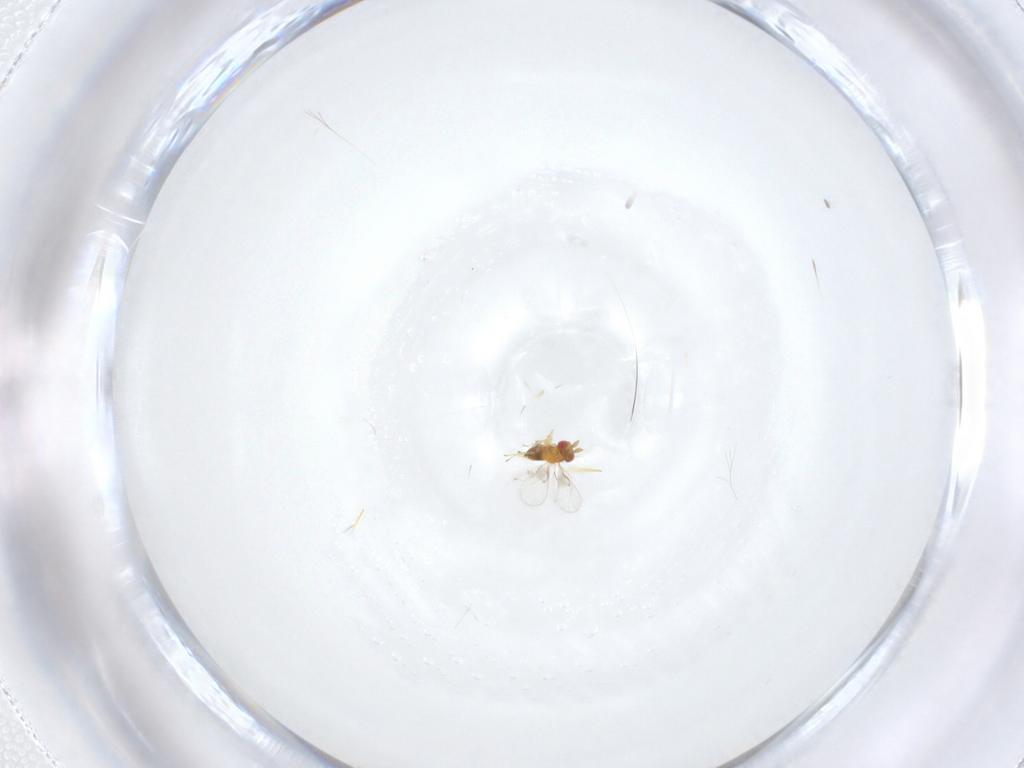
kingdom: Animalia
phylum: Arthropoda
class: Insecta
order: Hymenoptera
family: Trichogrammatidae
